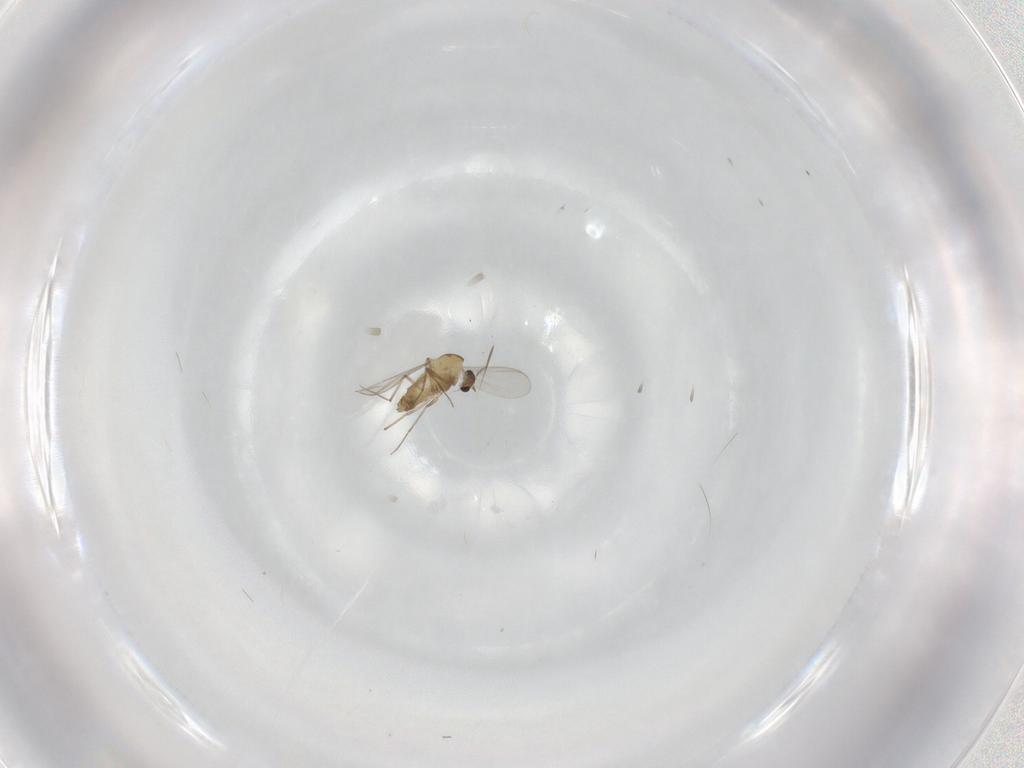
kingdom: Animalia
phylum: Arthropoda
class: Insecta
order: Diptera
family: Chironomidae
